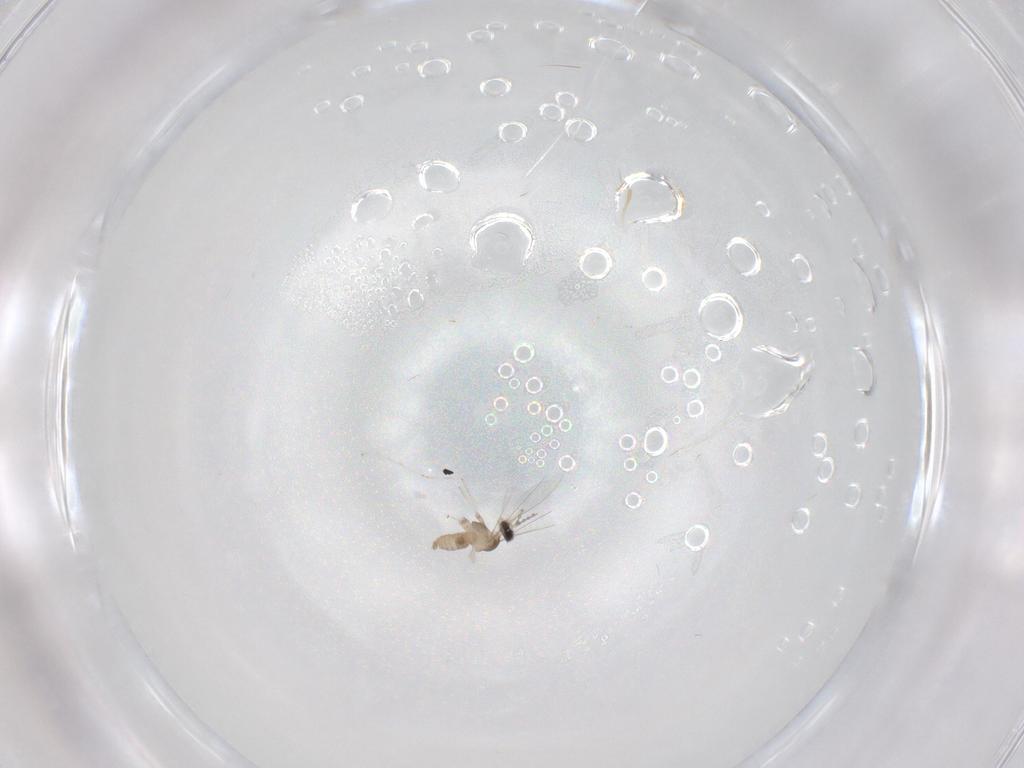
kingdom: Animalia
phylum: Arthropoda
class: Insecta
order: Diptera
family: Cecidomyiidae
